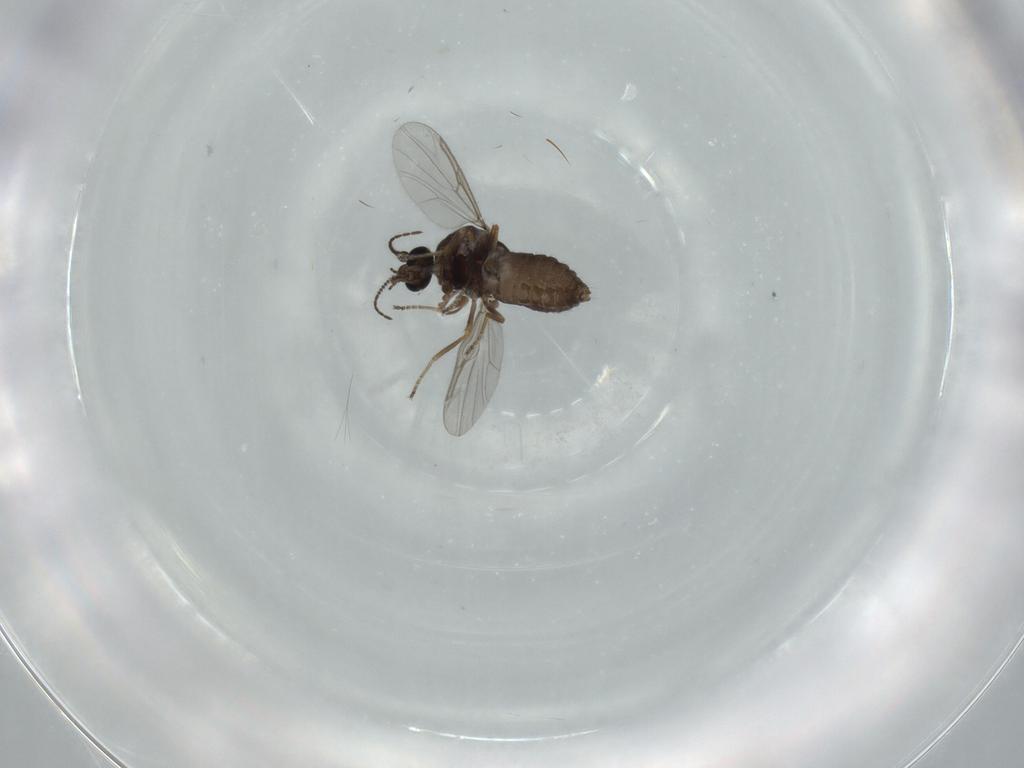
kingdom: Animalia
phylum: Arthropoda
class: Insecta
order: Diptera
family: Ceratopogonidae
